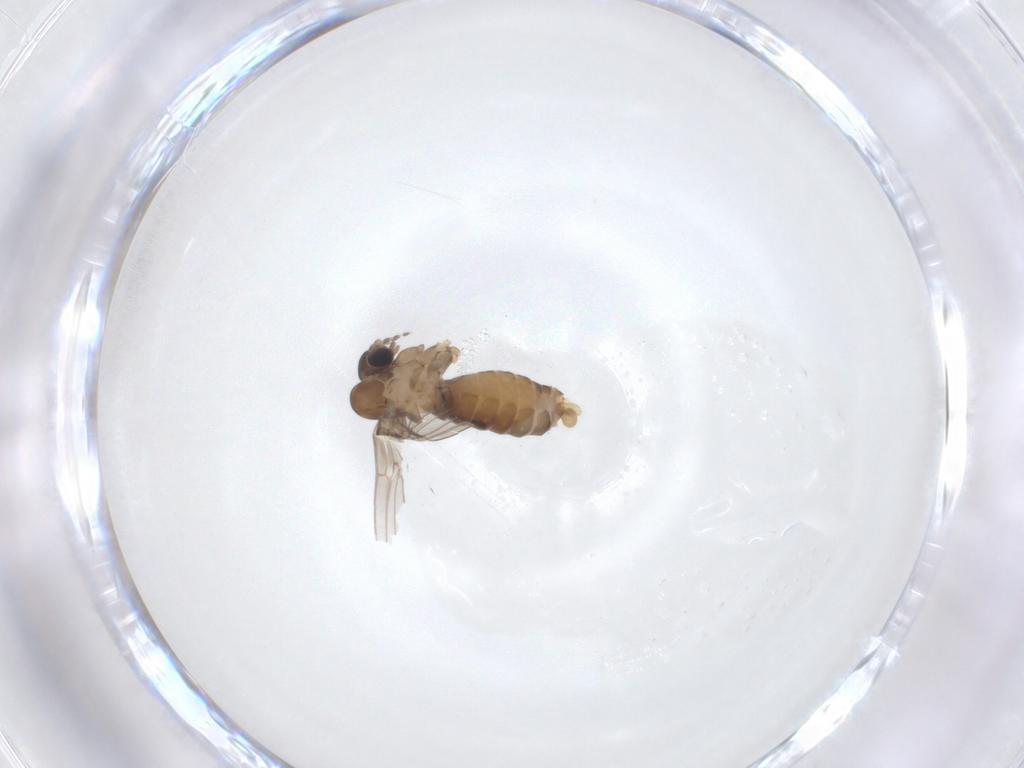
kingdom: Animalia
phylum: Arthropoda
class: Insecta
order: Diptera
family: Psychodidae
